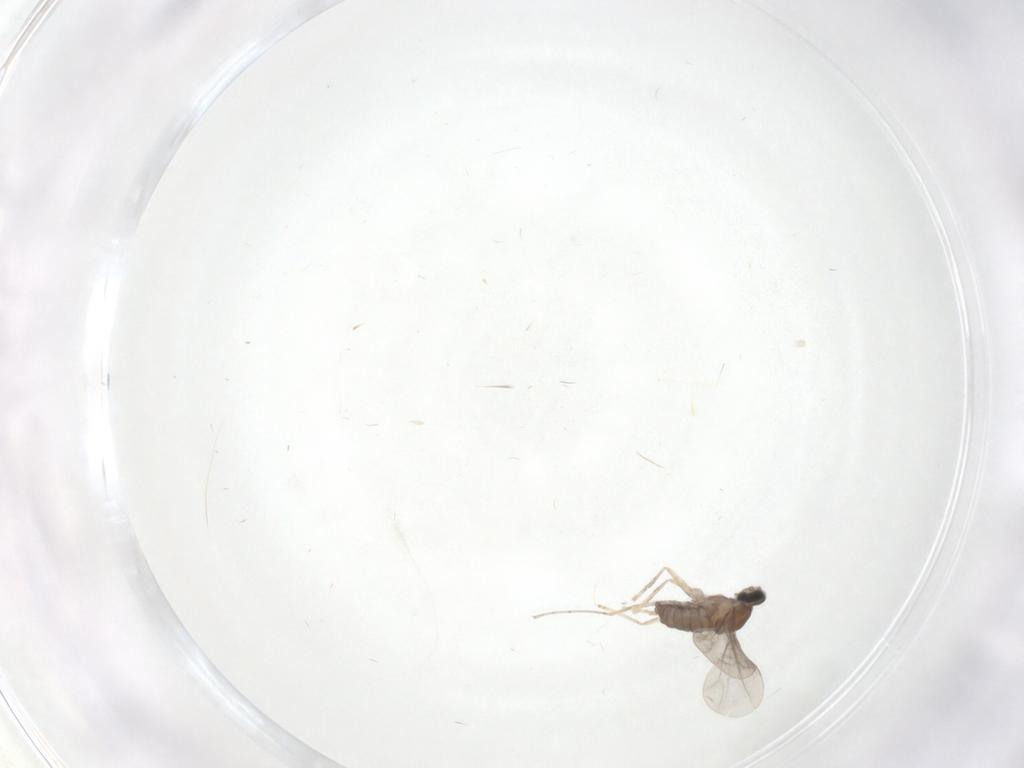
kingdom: Animalia
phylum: Arthropoda
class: Insecta
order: Diptera
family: Cecidomyiidae
